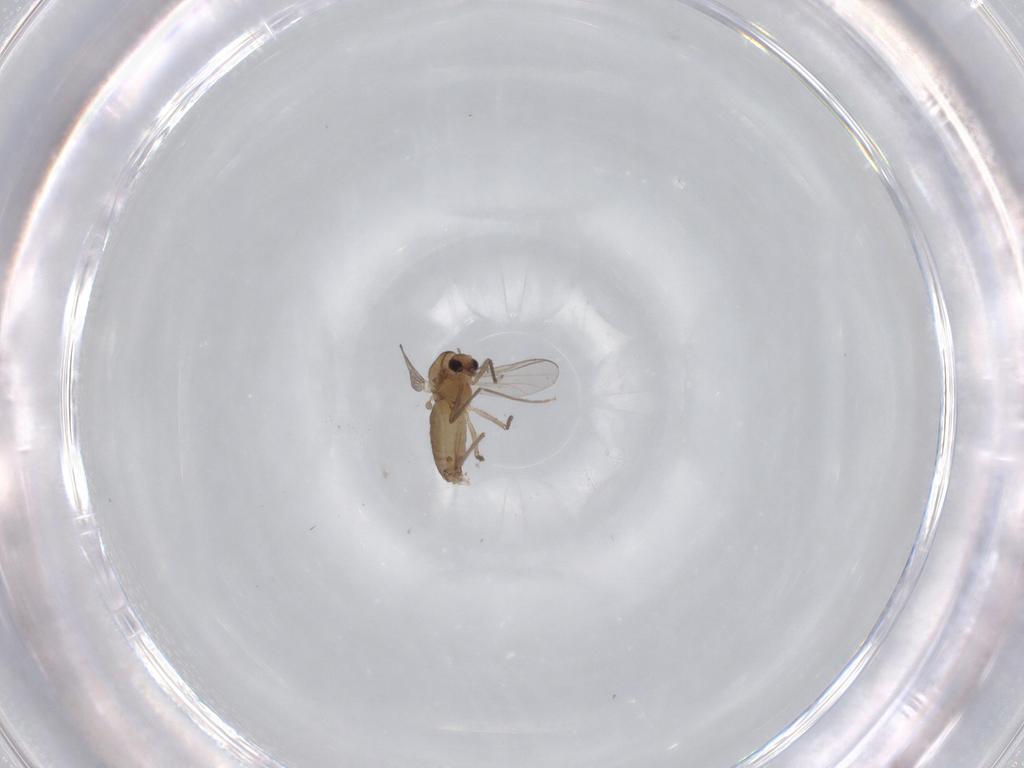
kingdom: Animalia
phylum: Arthropoda
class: Insecta
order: Diptera
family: Chironomidae
